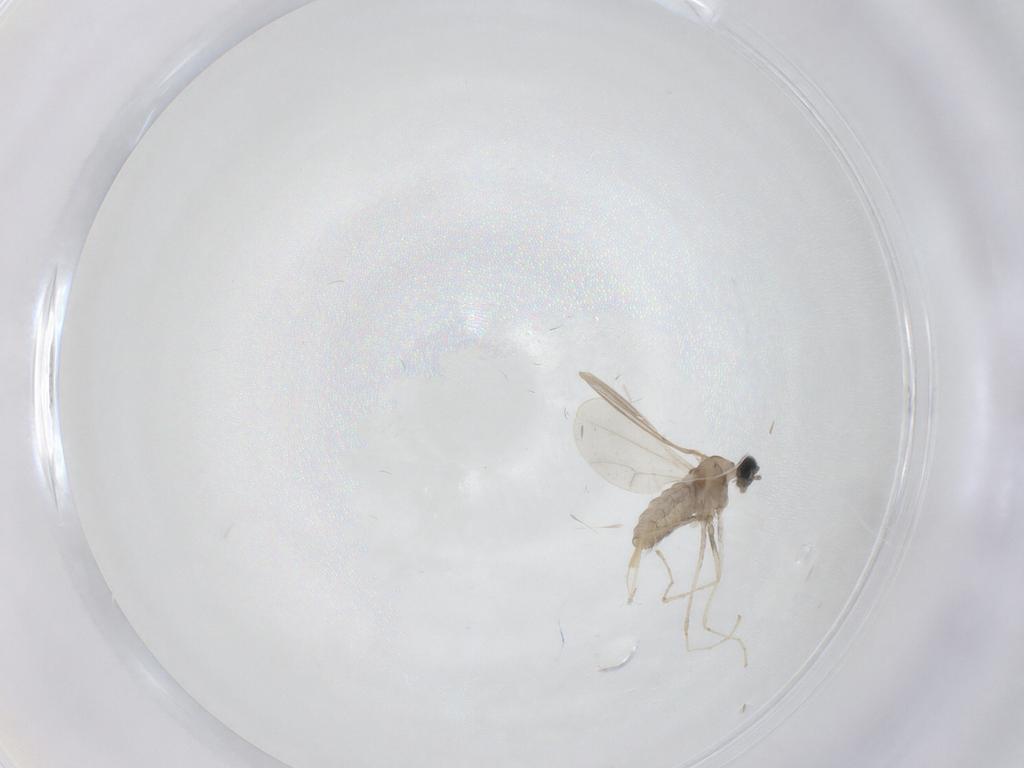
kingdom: Animalia
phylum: Arthropoda
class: Insecta
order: Diptera
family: Cecidomyiidae
